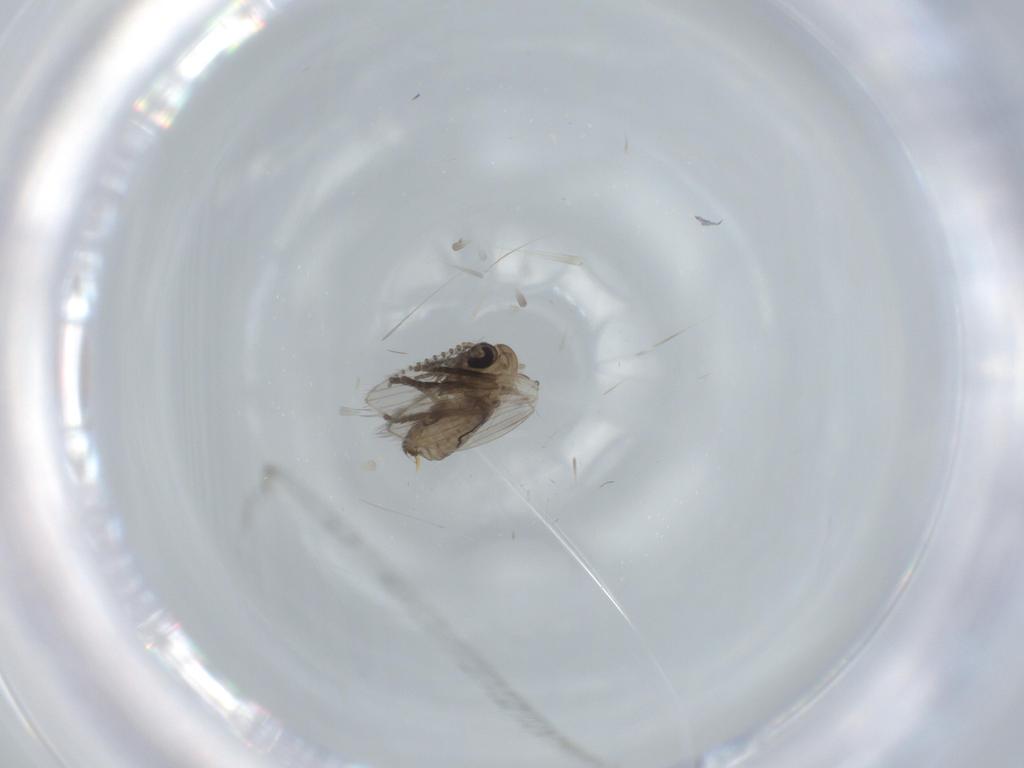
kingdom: Animalia
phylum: Arthropoda
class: Insecta
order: Diptera
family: Psychodidae
